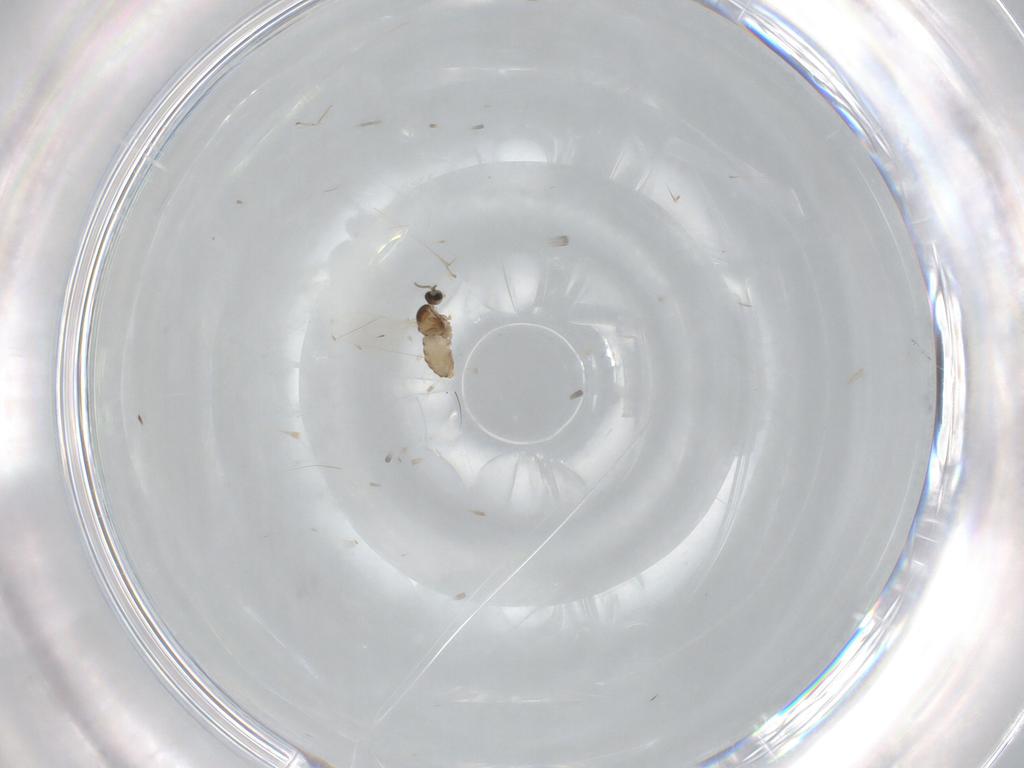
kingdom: Animalia
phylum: Arthropoda
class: Insecta
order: Diptera
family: Cecidomyiidae
